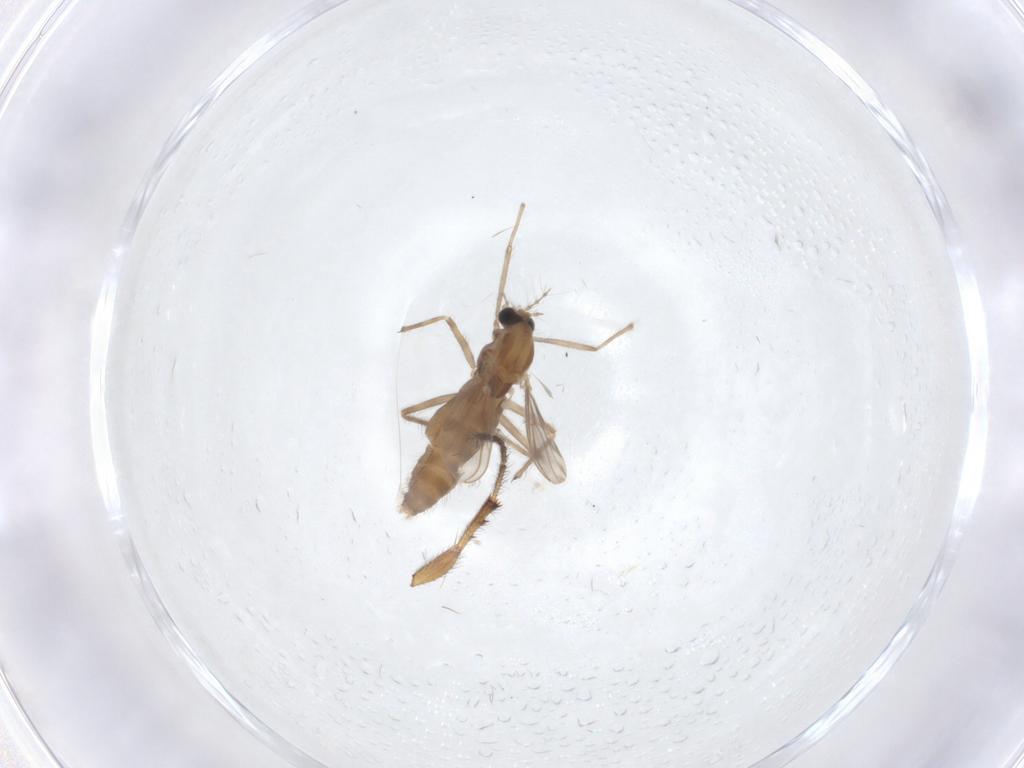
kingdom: Animalia
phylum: Arthropoda
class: Insecta
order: Diptera
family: Chironomidae
